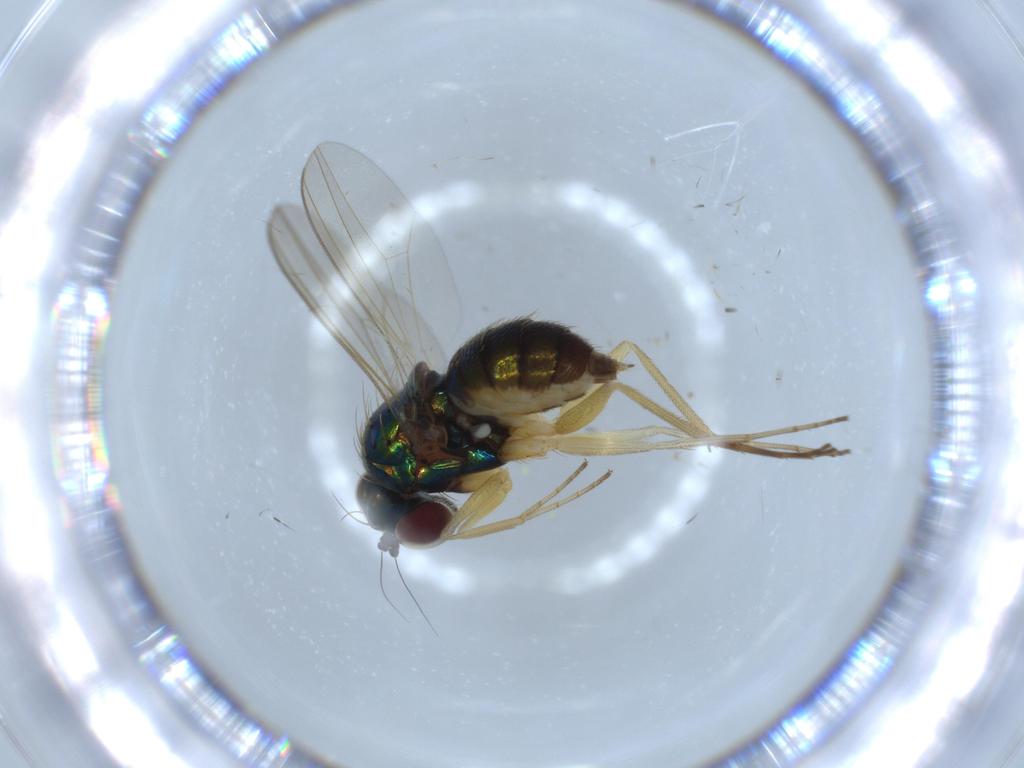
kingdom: Animalia
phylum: Arthropoda
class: Insecta
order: Diptera
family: Dolichopodidae
